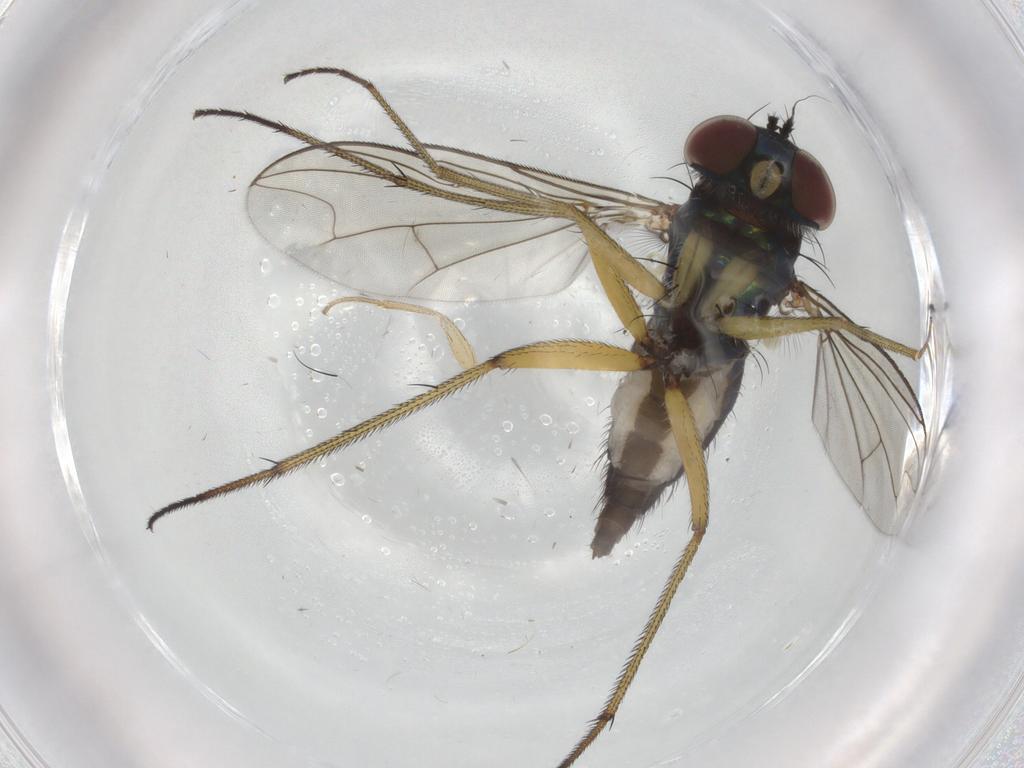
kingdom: Animalia
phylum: Arthropoda
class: Insecta
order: Diptera
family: Dolichopodidae
